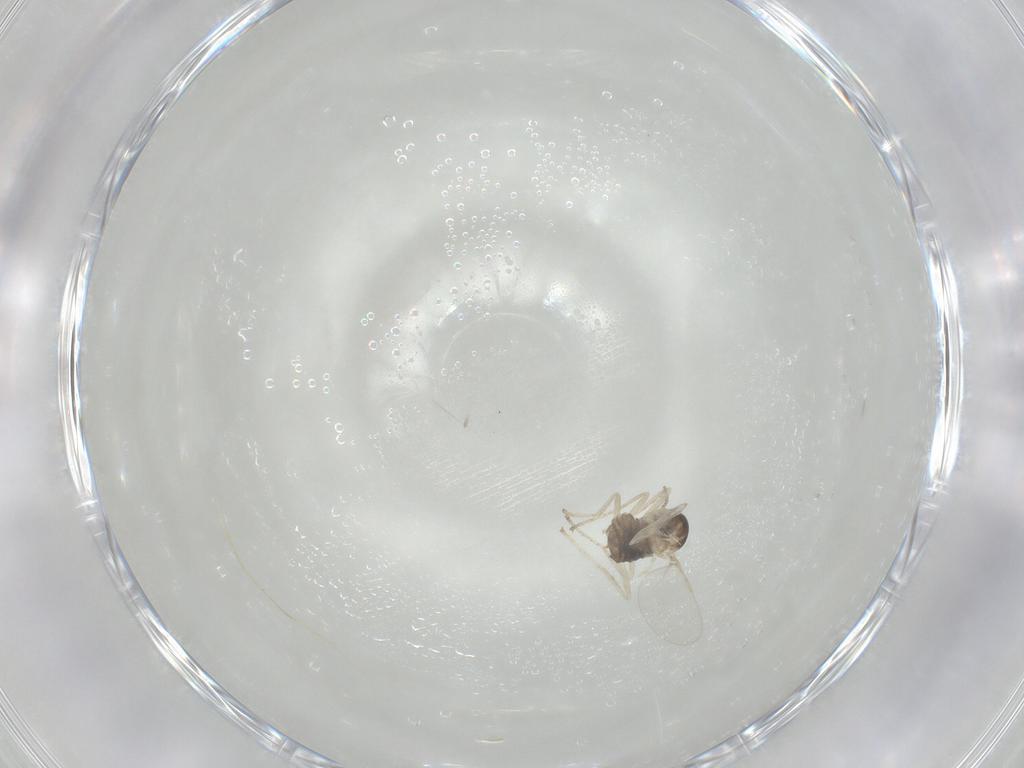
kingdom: Animalia
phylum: Arthropoda
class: Insecta
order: Diptera
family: Cecidomyiidae
